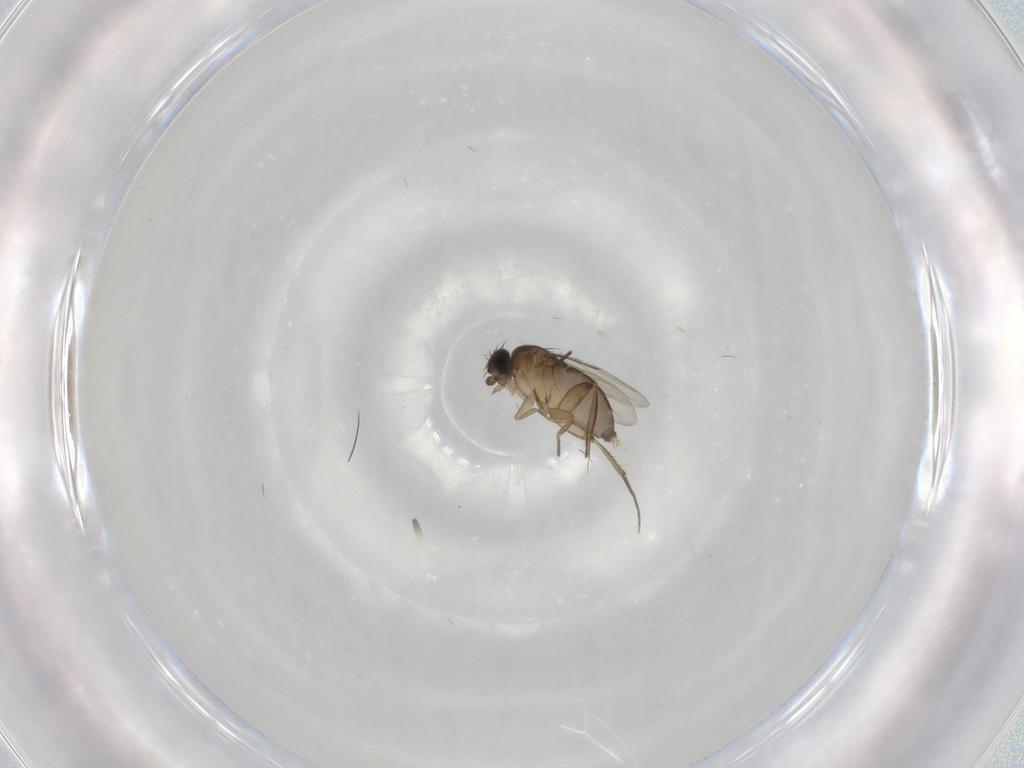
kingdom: Animalia
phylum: Arthropoda
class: Insecta
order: Diptera
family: Phoridae
